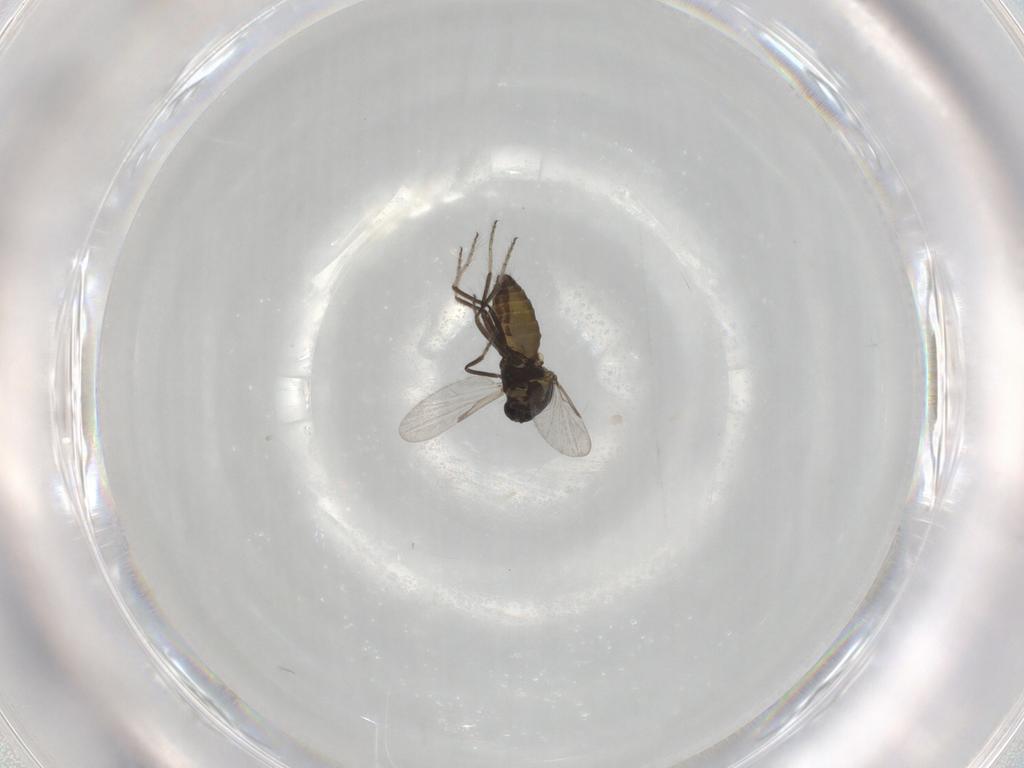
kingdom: Animalia
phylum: Arthropoda
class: Insecta
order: Diptera
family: Ceratopogonidae
